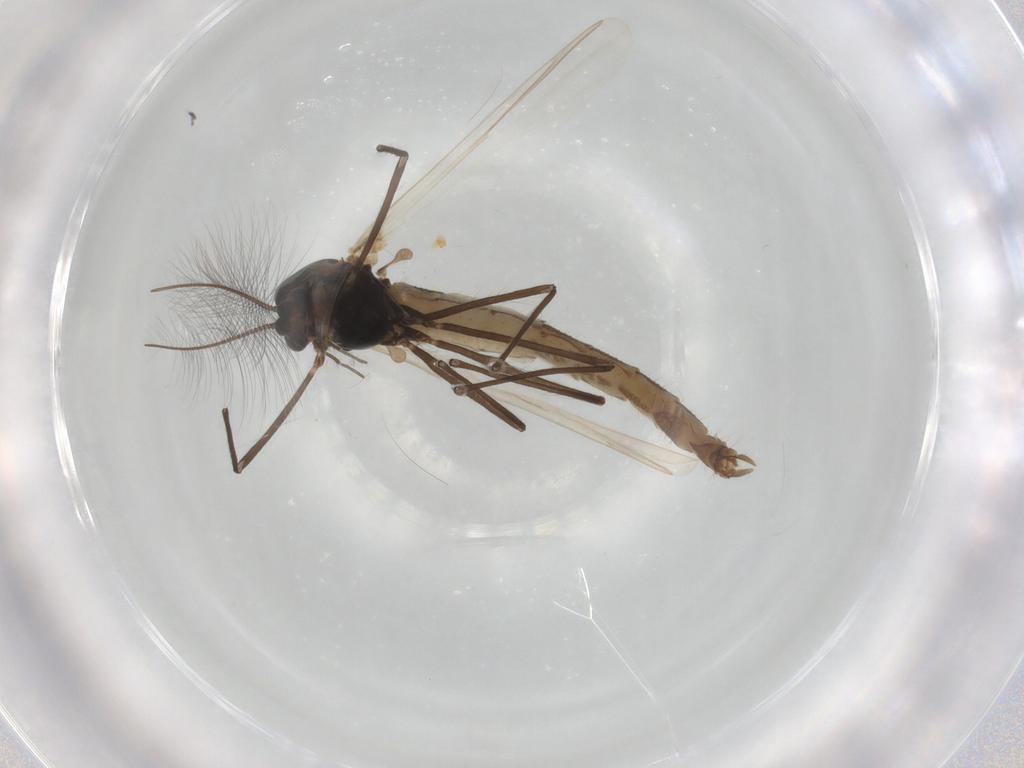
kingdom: Animalia
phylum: Arthropoda
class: Insecta
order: Diptera
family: Chironomidae
